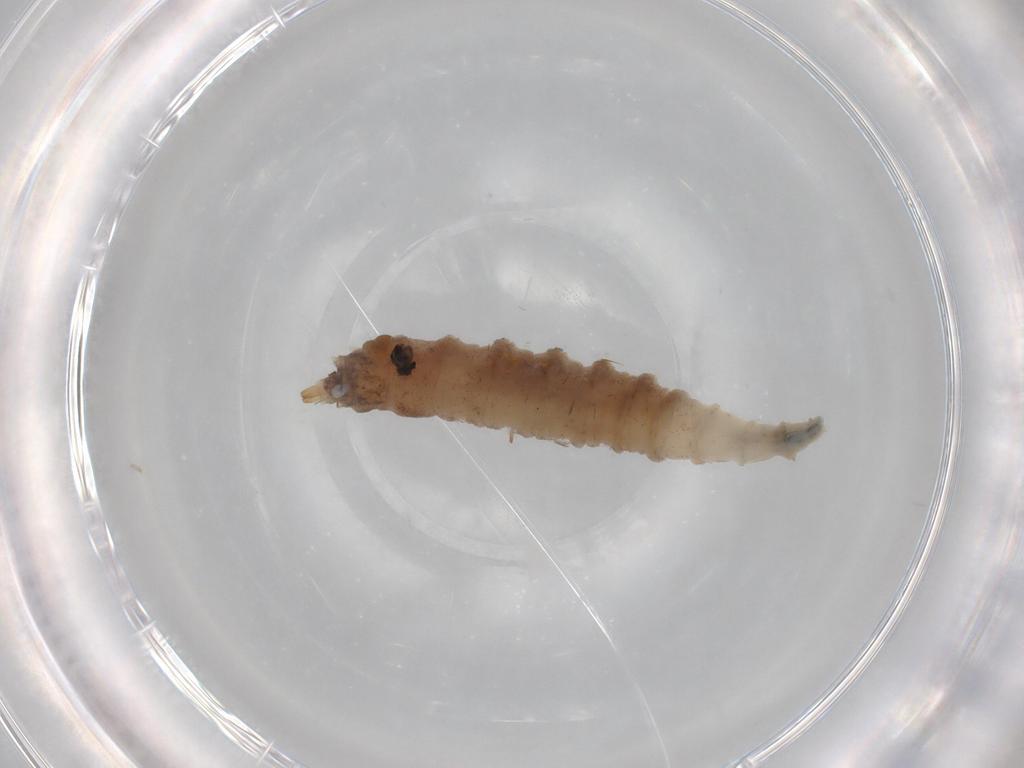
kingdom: Animalia
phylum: Arthropoda
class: Insecta
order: Diptera
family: Drosophilidae
